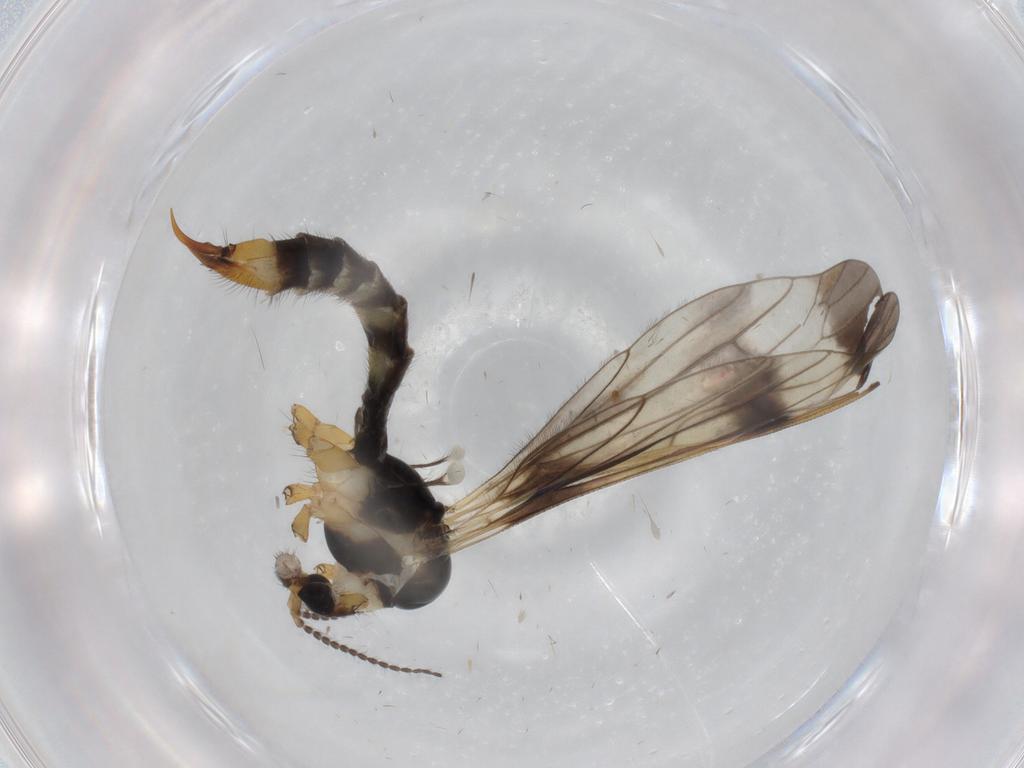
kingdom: Animalia
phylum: Arthropoda
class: Insecta
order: Diptera
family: Limoniidae
